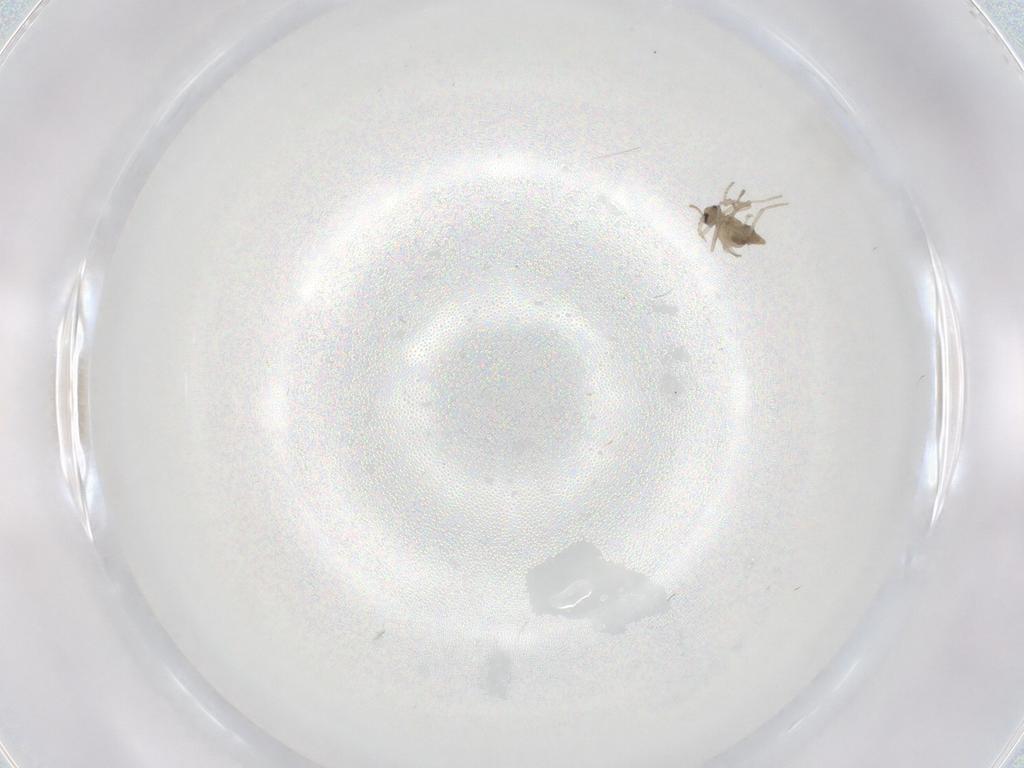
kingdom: Animalia
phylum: Arthropoda
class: Insecta
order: Diptera
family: Cecidomyiidae
